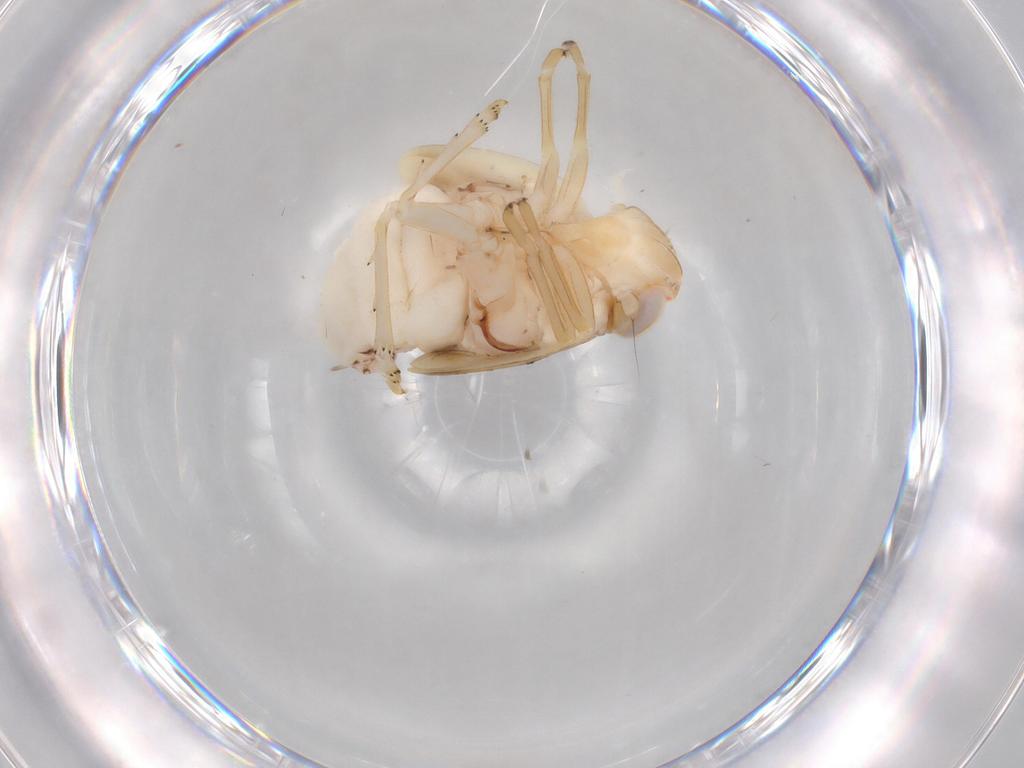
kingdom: Animalia
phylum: Arthropoda
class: Insecta
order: Hemiptera
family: Nogodinidae
